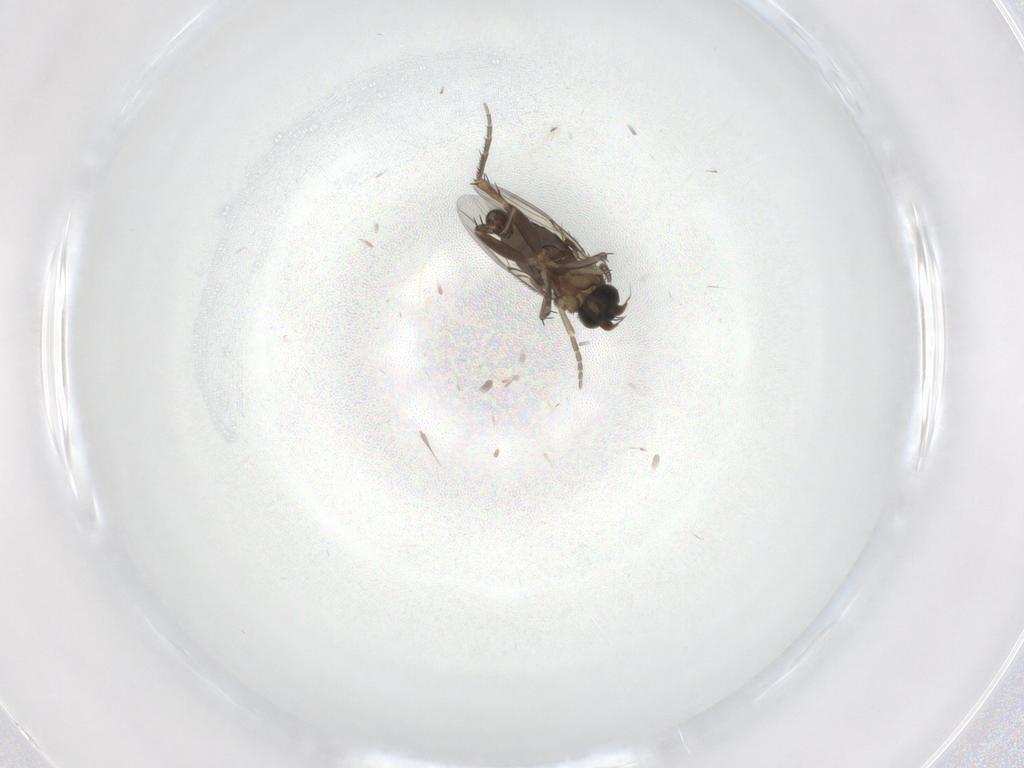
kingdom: Animalia
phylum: Arthropoda
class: Insecta
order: Diptera
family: Phoridae
